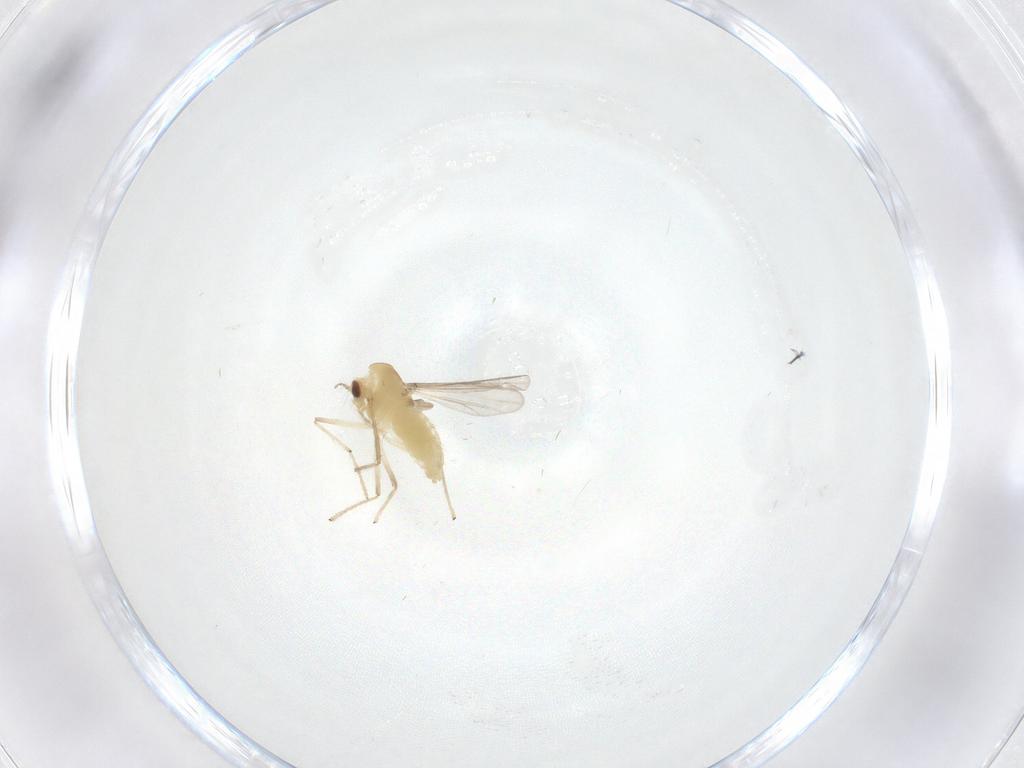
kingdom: Animalia
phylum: Arthropoda
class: Insecta
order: Diptera
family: Chironomidae
